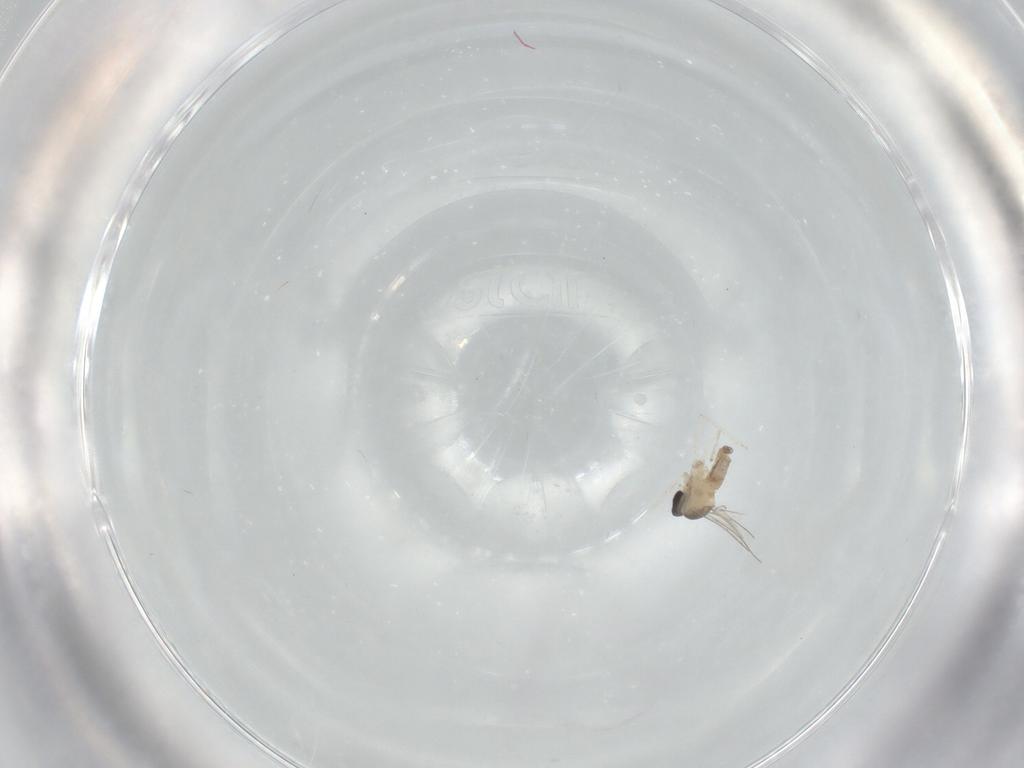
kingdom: Animalia
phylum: Arthropoda
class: Insecta
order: Diptera
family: Cecidomyiidae
